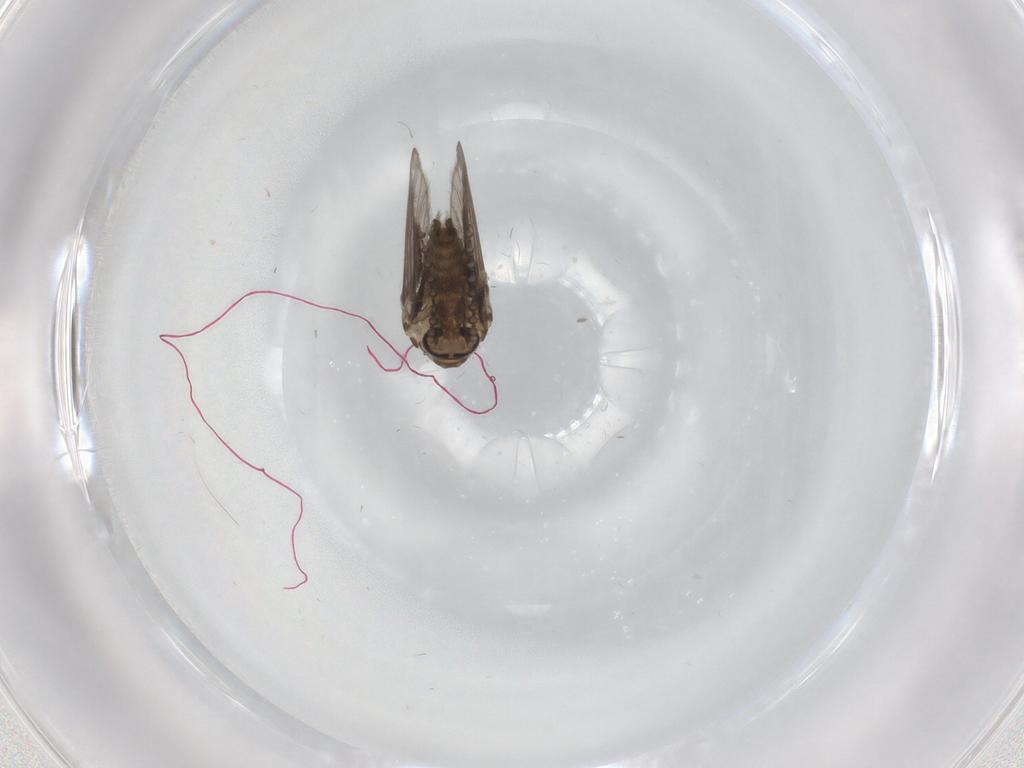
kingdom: Animalia
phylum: Arthropoda
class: Insecta
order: Diptera
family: Psychodidae
